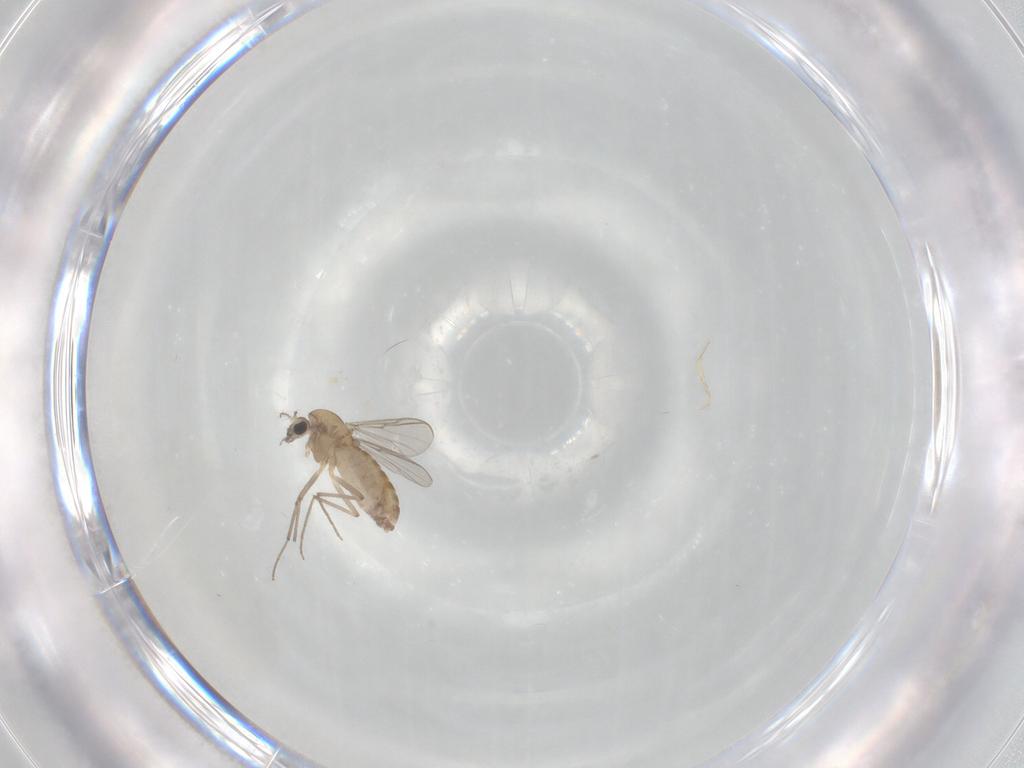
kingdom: Animalia
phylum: Arthropoda
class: Insecta
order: Diptera
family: Chironomidae
